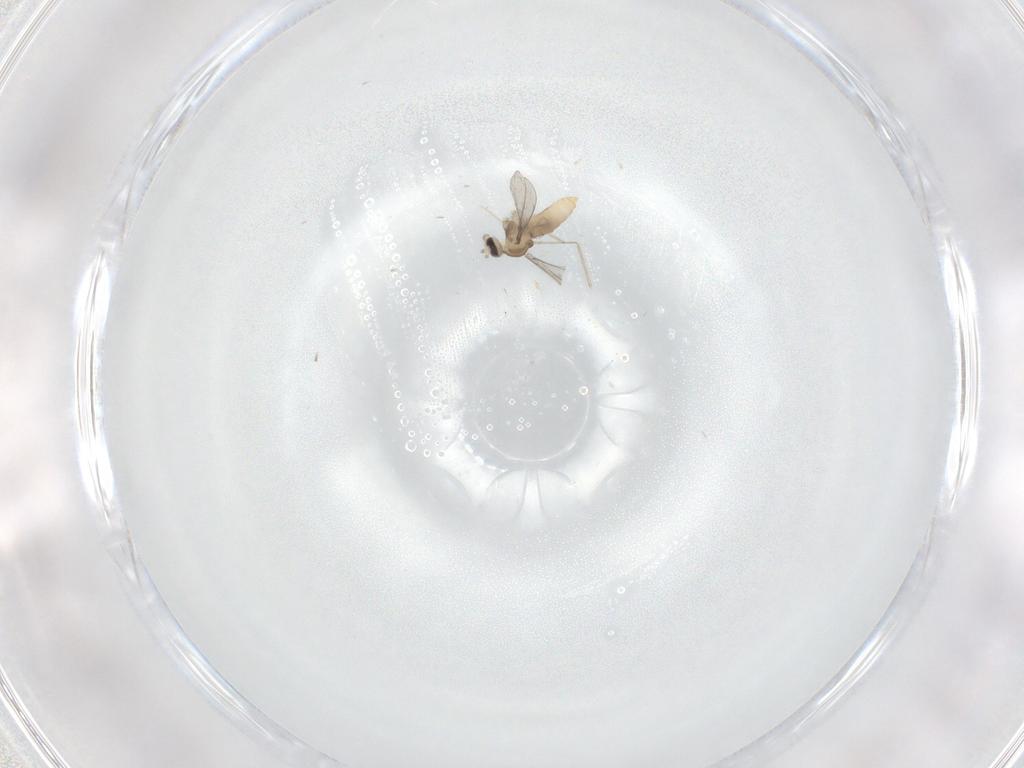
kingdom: Animalia
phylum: Arthropoda
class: Insecta
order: Diptera
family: Cecidomyiidae
